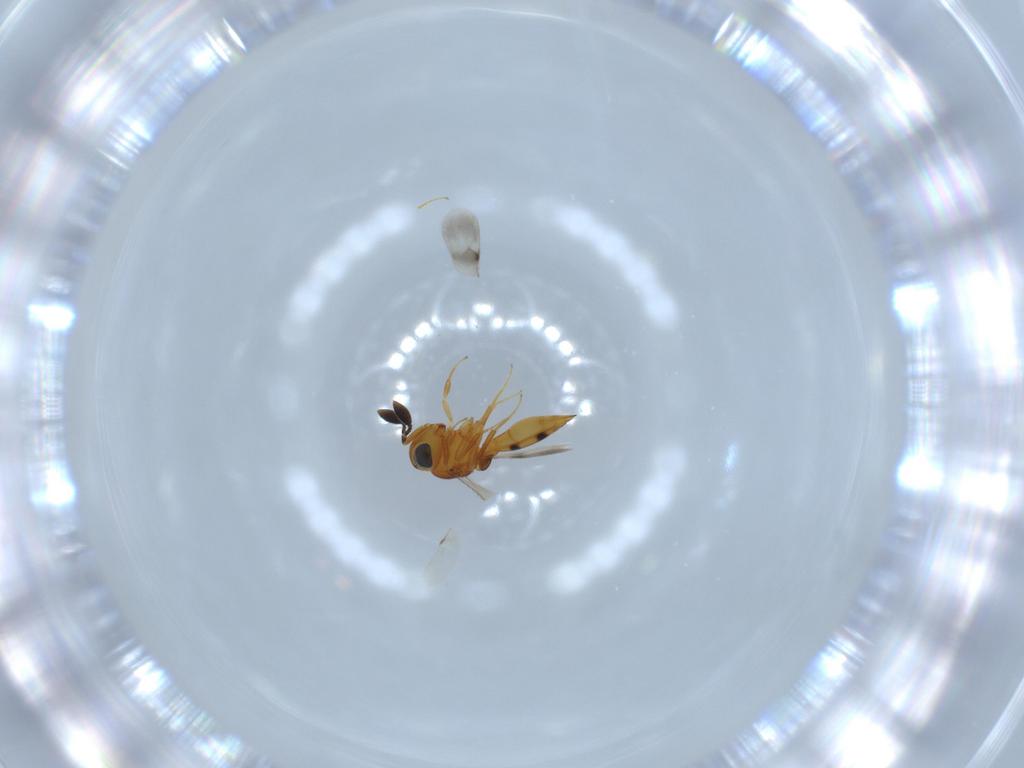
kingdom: Animalia
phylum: Arthropoda
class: Insecta
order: Hymenoptera
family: Scelionidae
